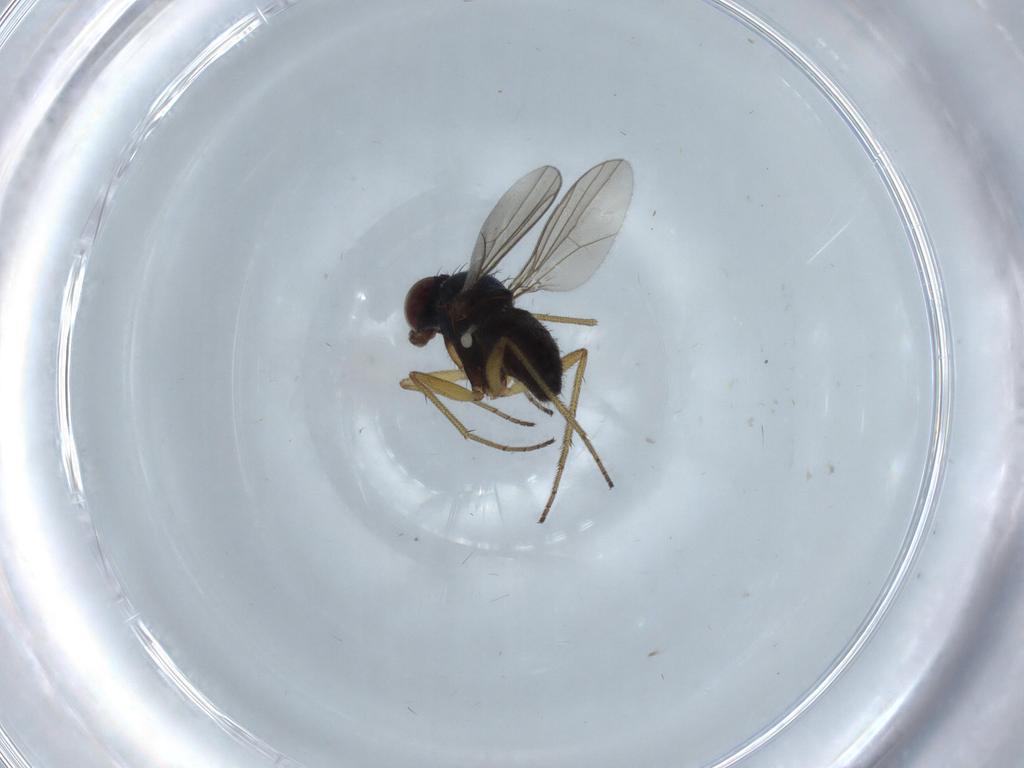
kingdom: Animalia
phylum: Arthropoda
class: Insecta
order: Diptera
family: Dolichopodidae
